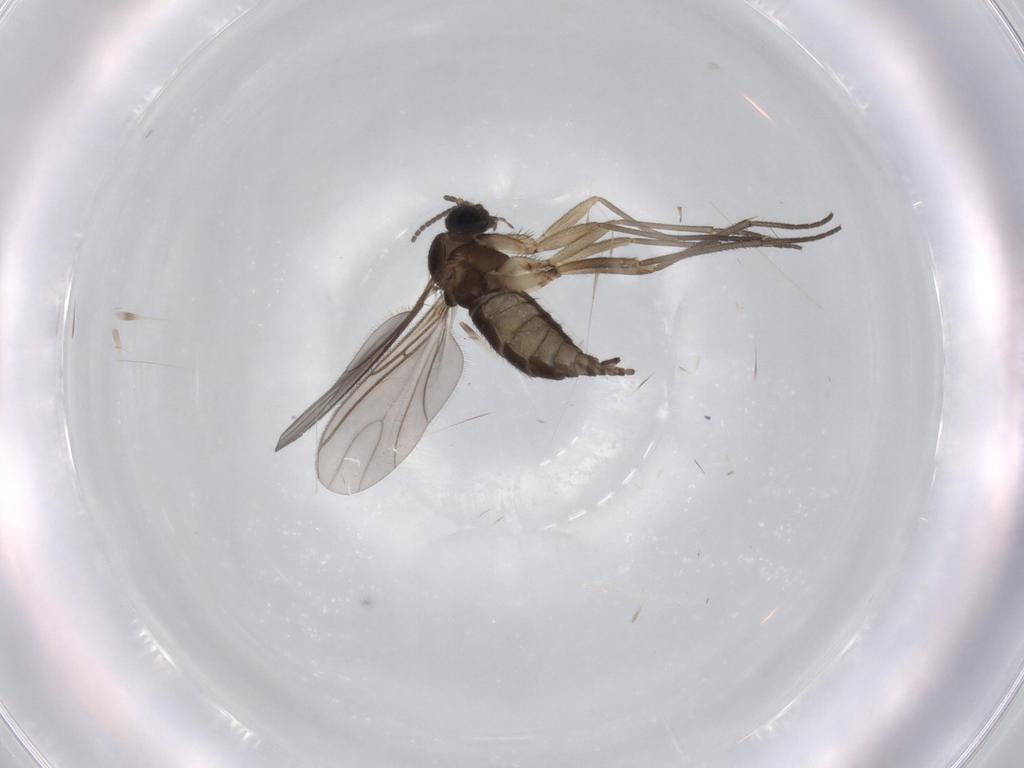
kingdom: Animalia
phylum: Arthropoda
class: Insecta
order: Diptera
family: Sciaridae
